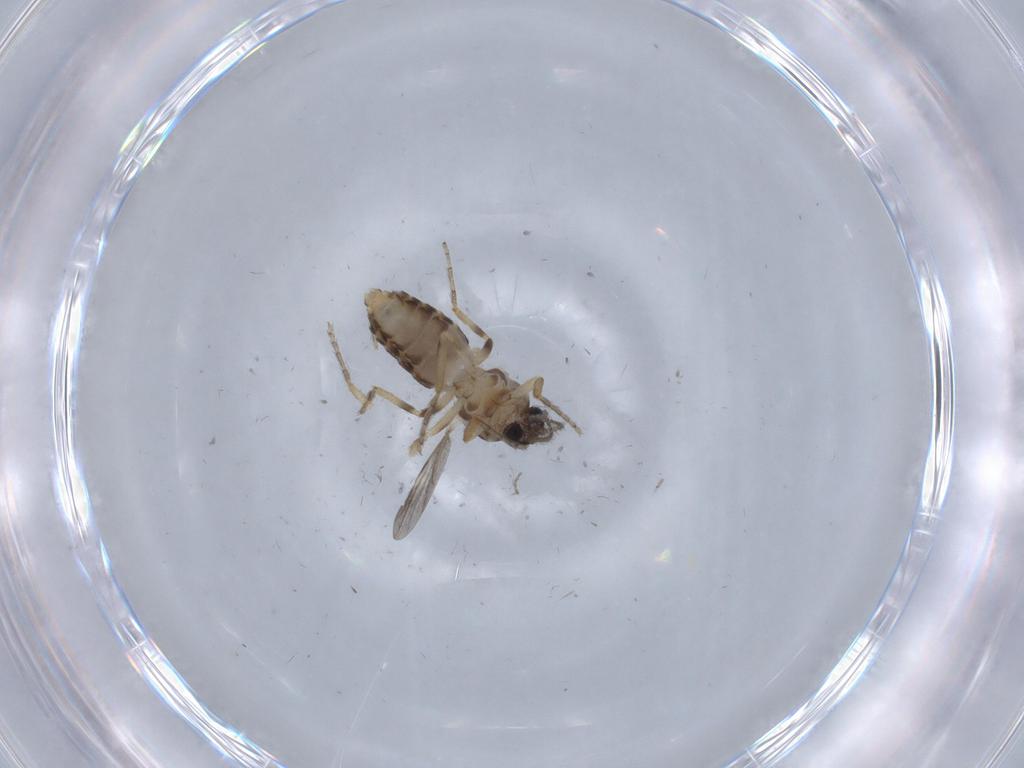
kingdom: Animalia
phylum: Arthropoda
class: Insecta
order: Diptera
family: Ceratopogonidae
